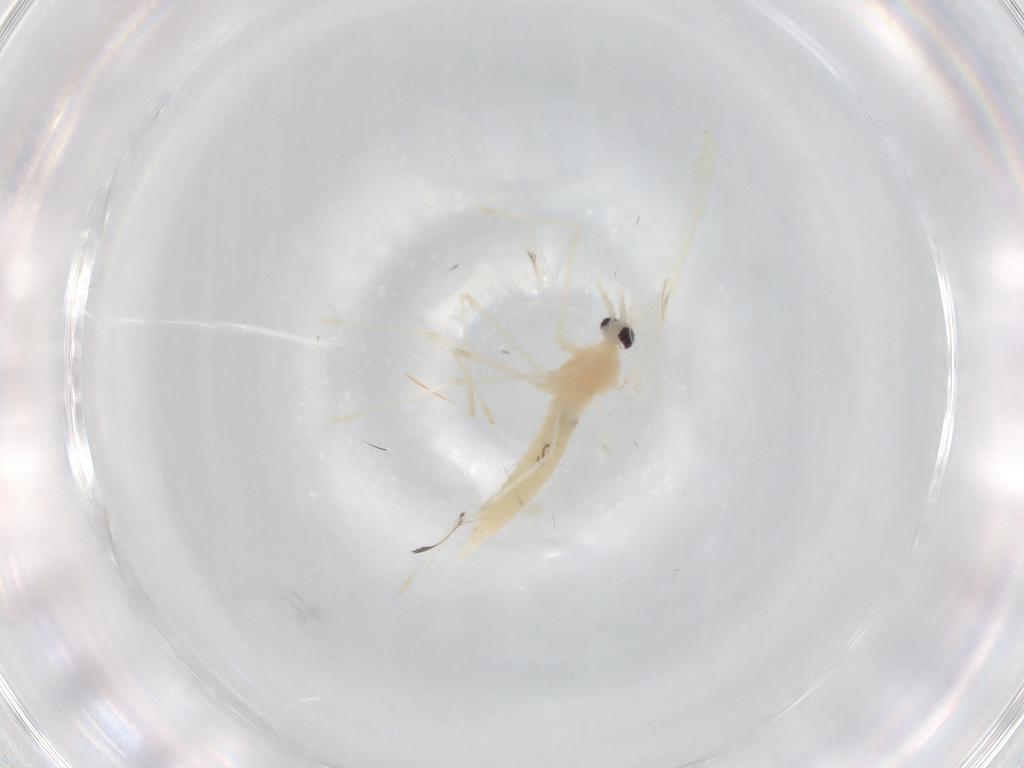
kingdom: Animalia
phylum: Arthropoda
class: Insecta
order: Diptera
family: Cecidomyiidae
